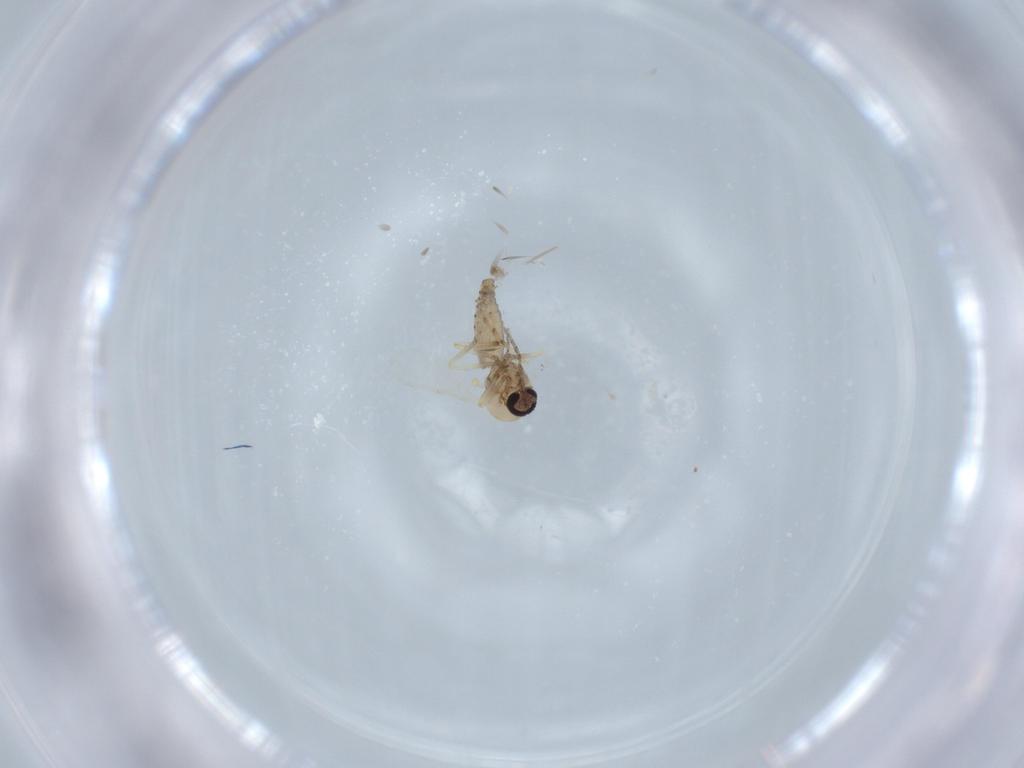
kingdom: Animalia
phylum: Arthropoda
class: Insecta
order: Diptera
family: Ceratopogonidae
